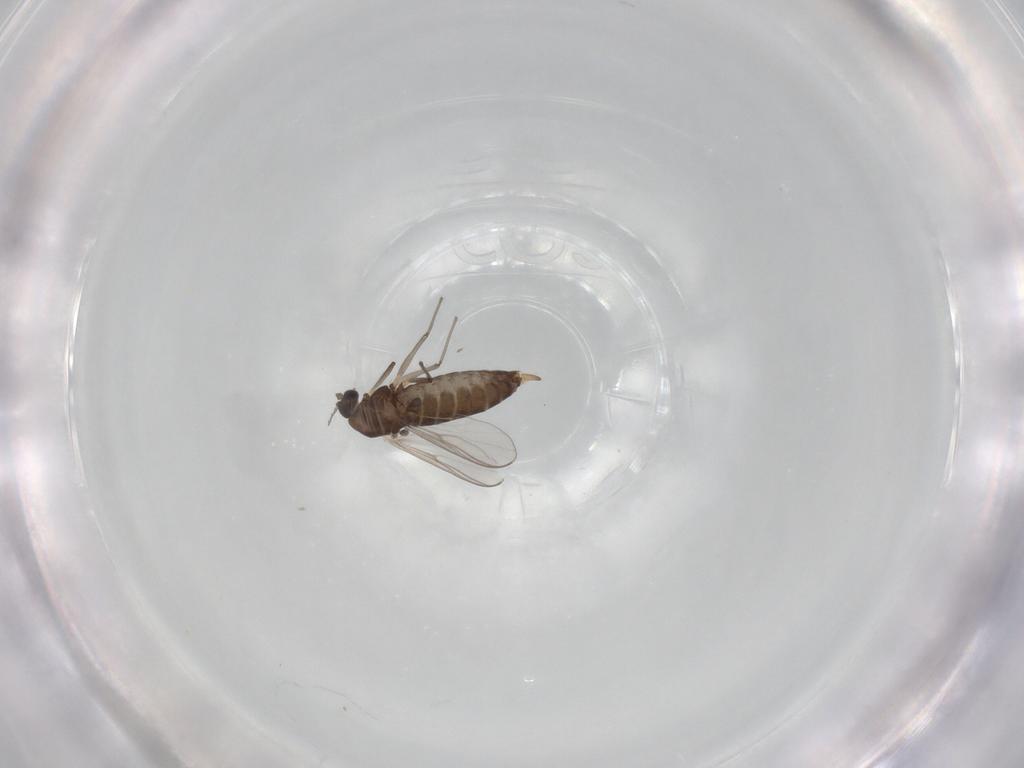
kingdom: Animalia
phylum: Arthropoda
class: Insecta
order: Diptera
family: Chironomidae
